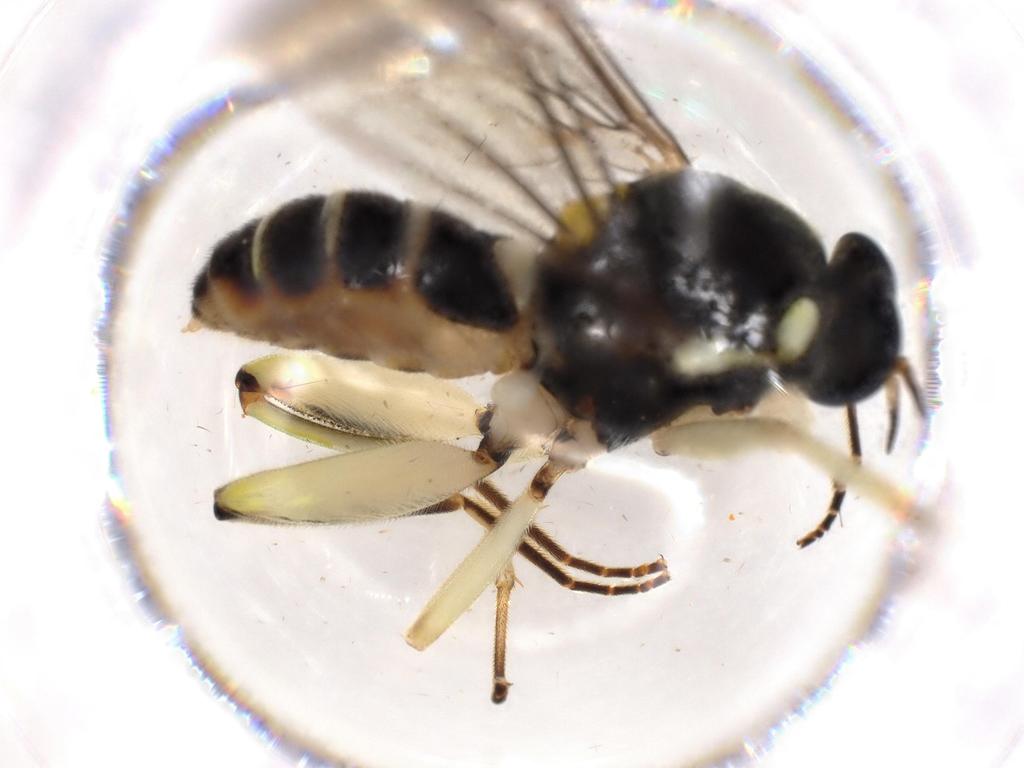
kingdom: Animalia
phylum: Arthropoda
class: Insecta
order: Diptera
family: Xylomyidae
